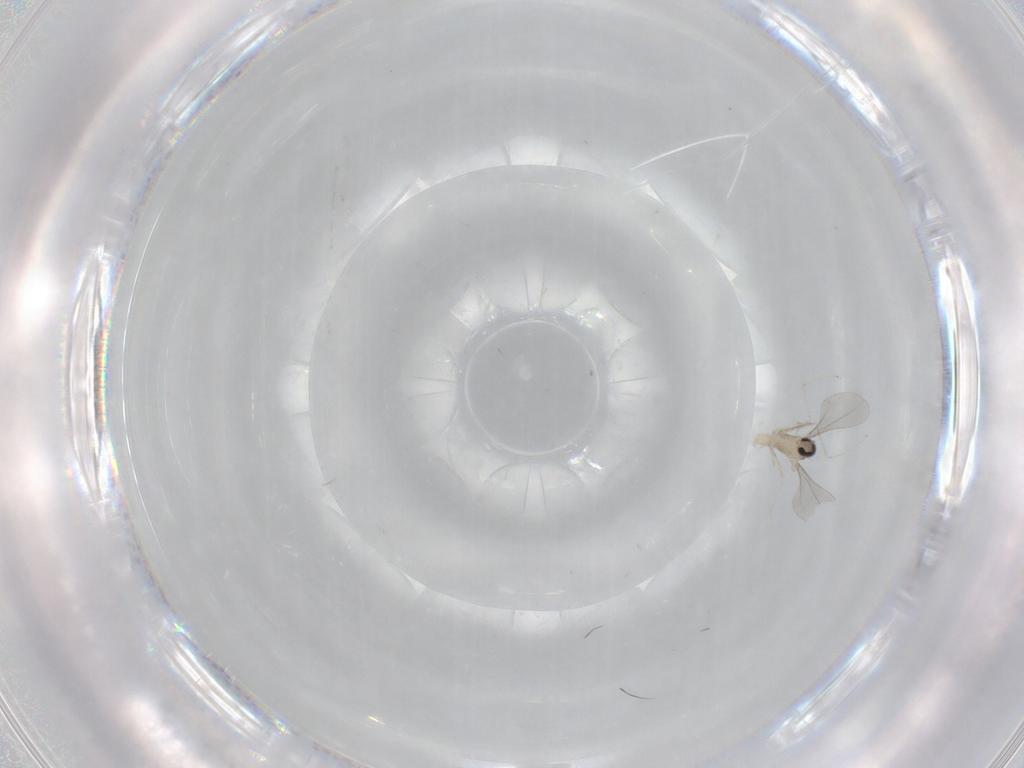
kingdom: Animalia
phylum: Arthropoda
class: Insecta
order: Diptera
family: Cecidomyiidae
